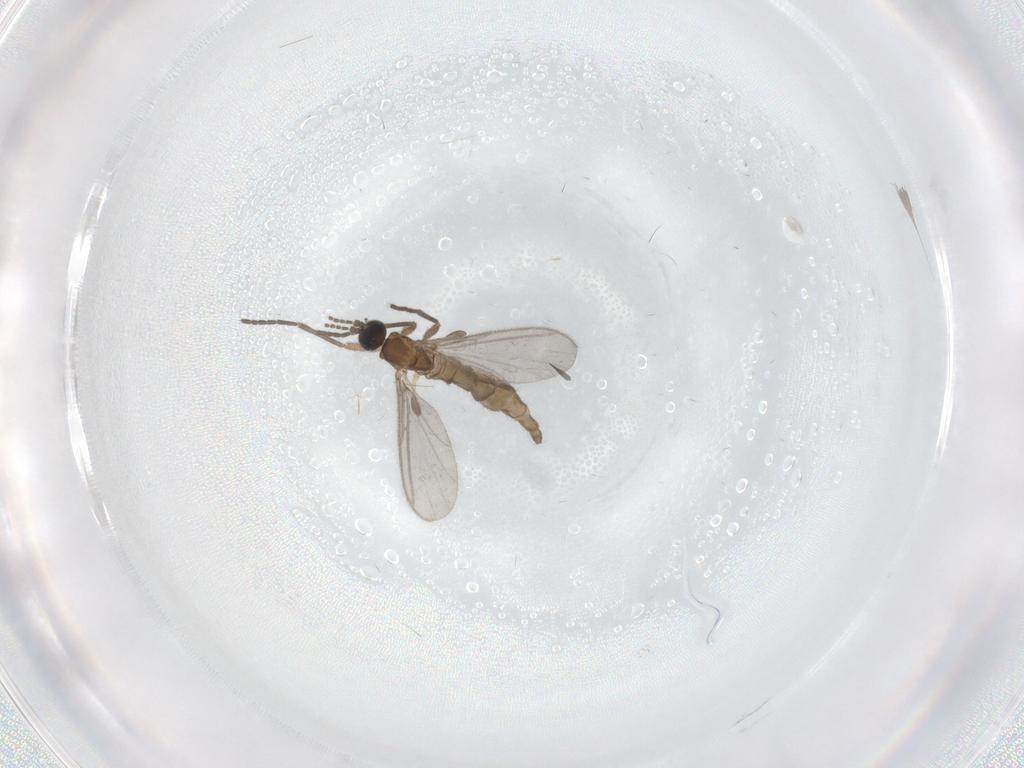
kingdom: Animalia
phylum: Arthropoda
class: Insecta
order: Diptera
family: Cecidomyiidae
